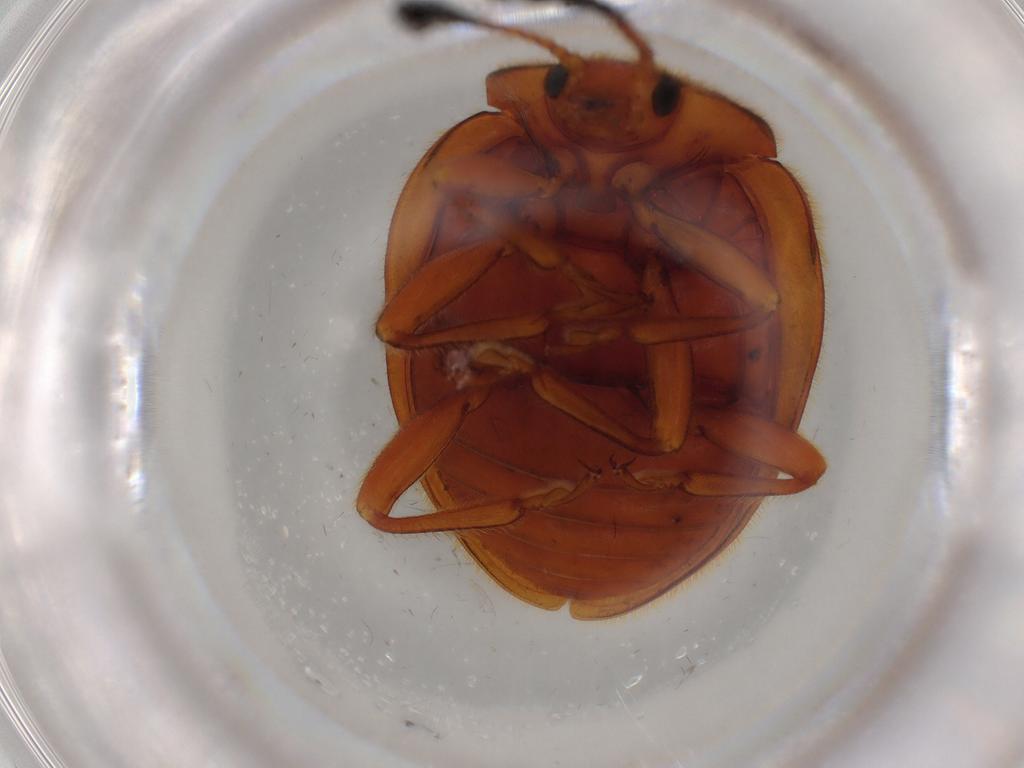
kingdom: Animalia
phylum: Arthropoda
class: Insecta
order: Coleoptera
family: Endomychidae
